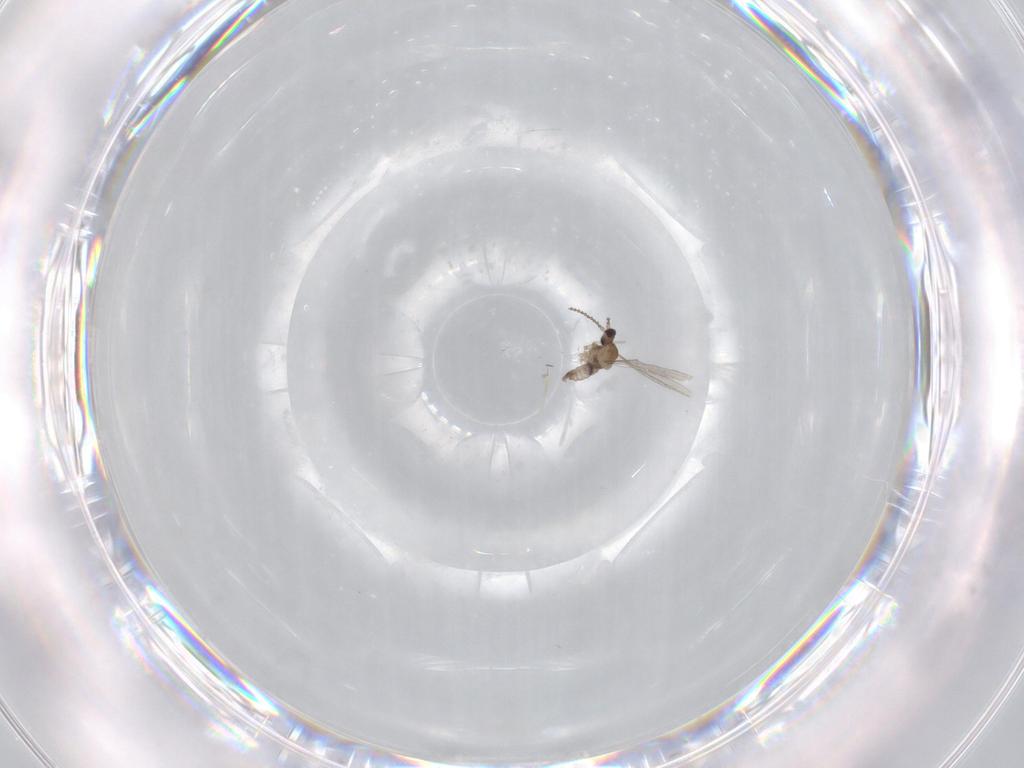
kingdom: Animalia
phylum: Arthropoda
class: Insecta
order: Diptera
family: Cecidomyiidae
